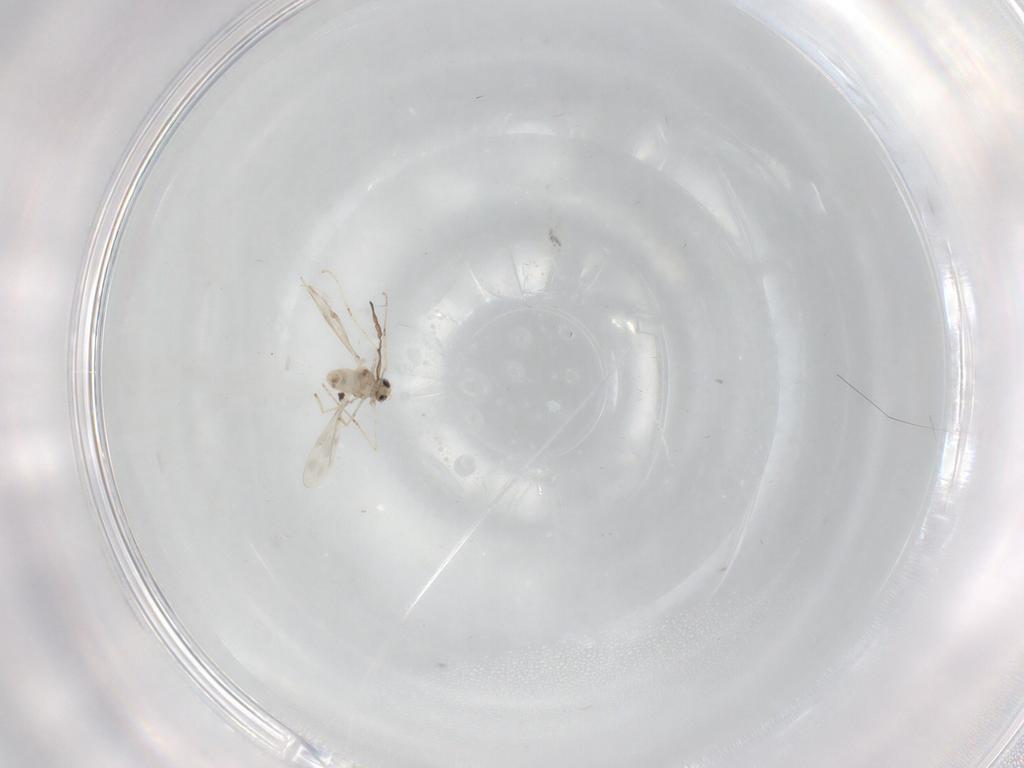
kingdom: Animalia
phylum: Arthropoda
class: Insecta
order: Diptera
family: Cecidomyiidae
